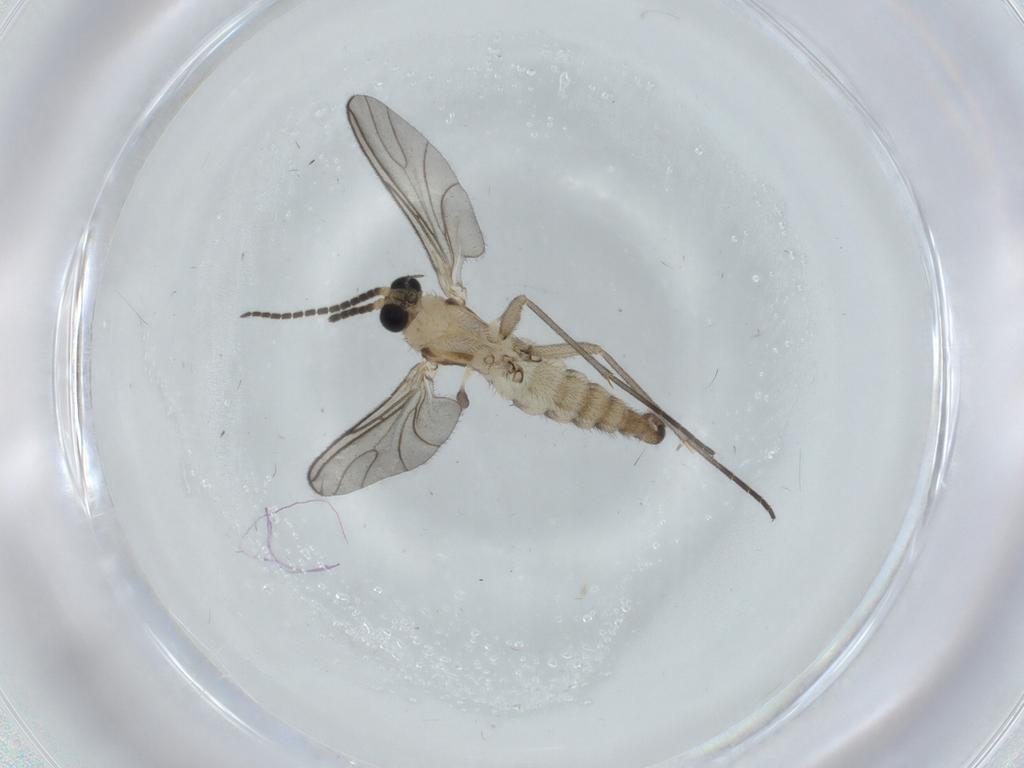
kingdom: Animalia
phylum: Arthropoda
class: Insecta
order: Diptera
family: Sciaridae
